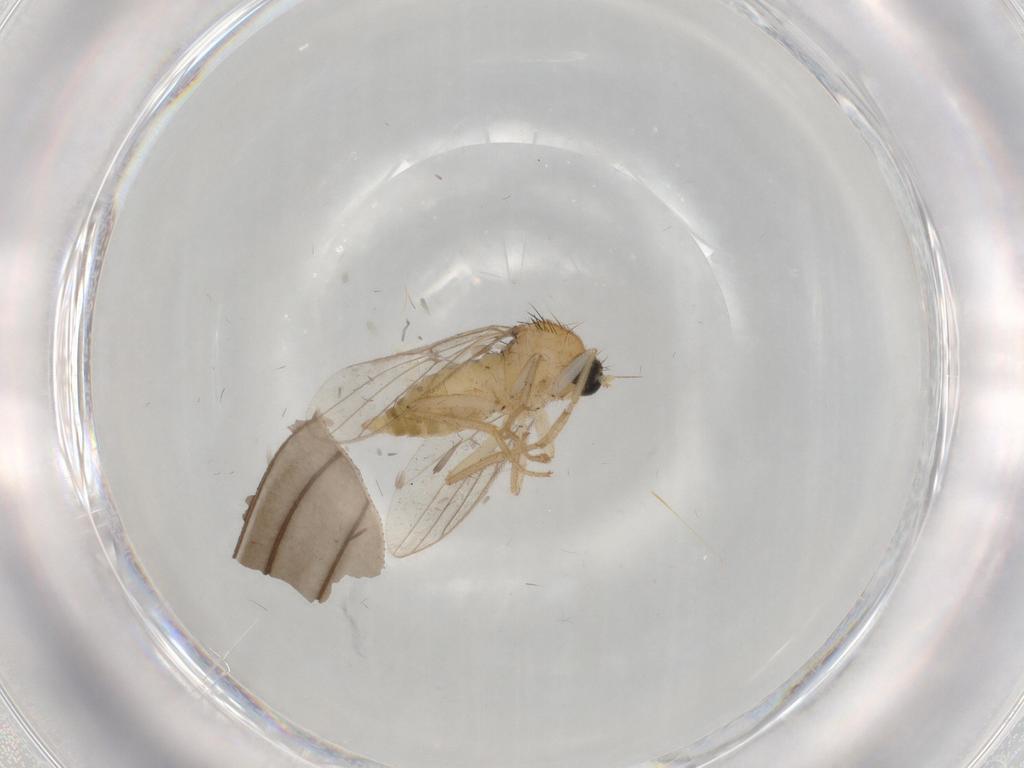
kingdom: Animalia
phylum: Arthropoda
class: Insecta
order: Diptera
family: Hybotidae
